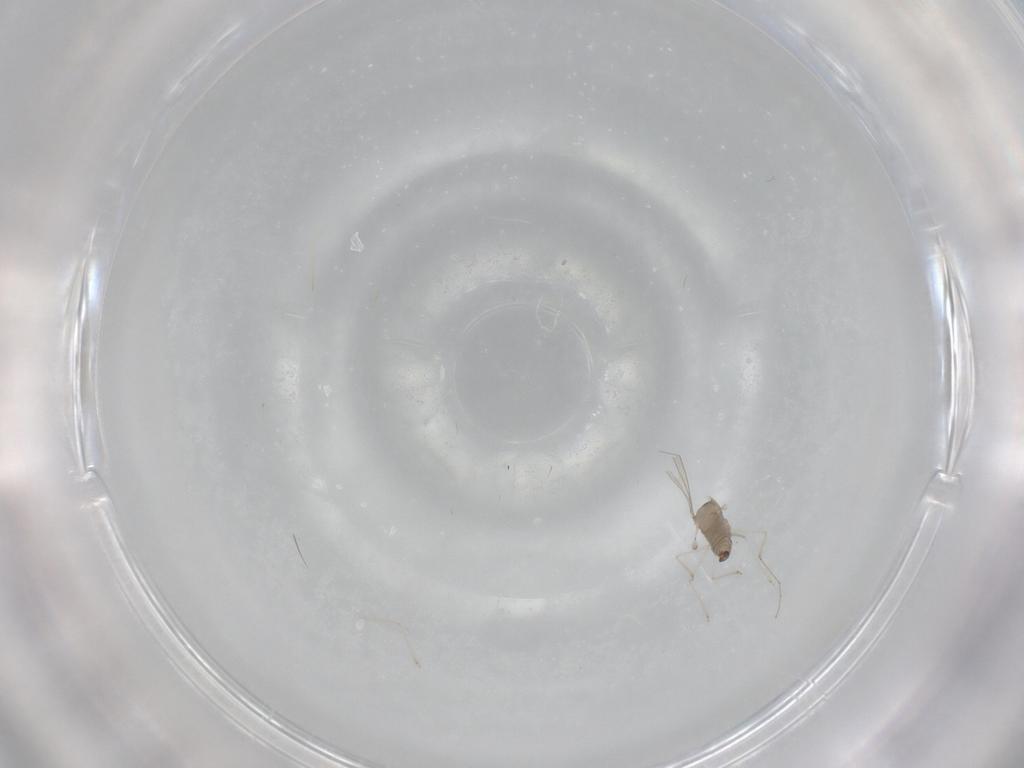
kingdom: Animalia
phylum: Arthropoda
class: Insecta
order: Diptera
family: Cecidomyiidae
